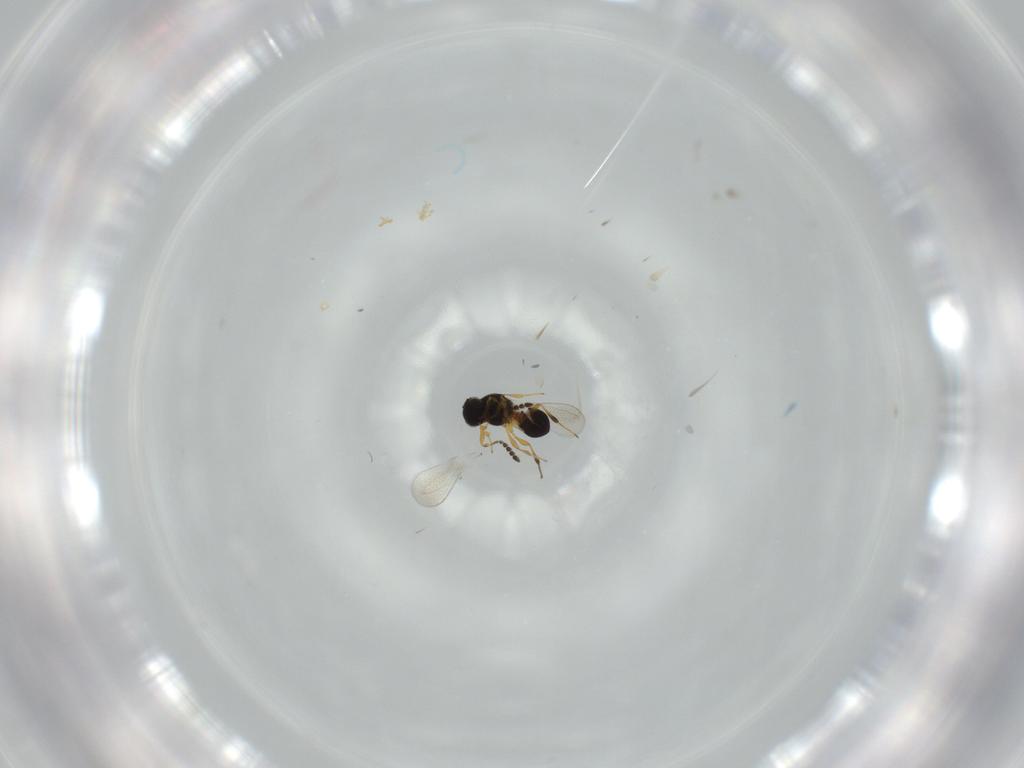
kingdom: Animalia
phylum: Arthropoda
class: Insecta
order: Hymenoptera
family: Platygastridae
